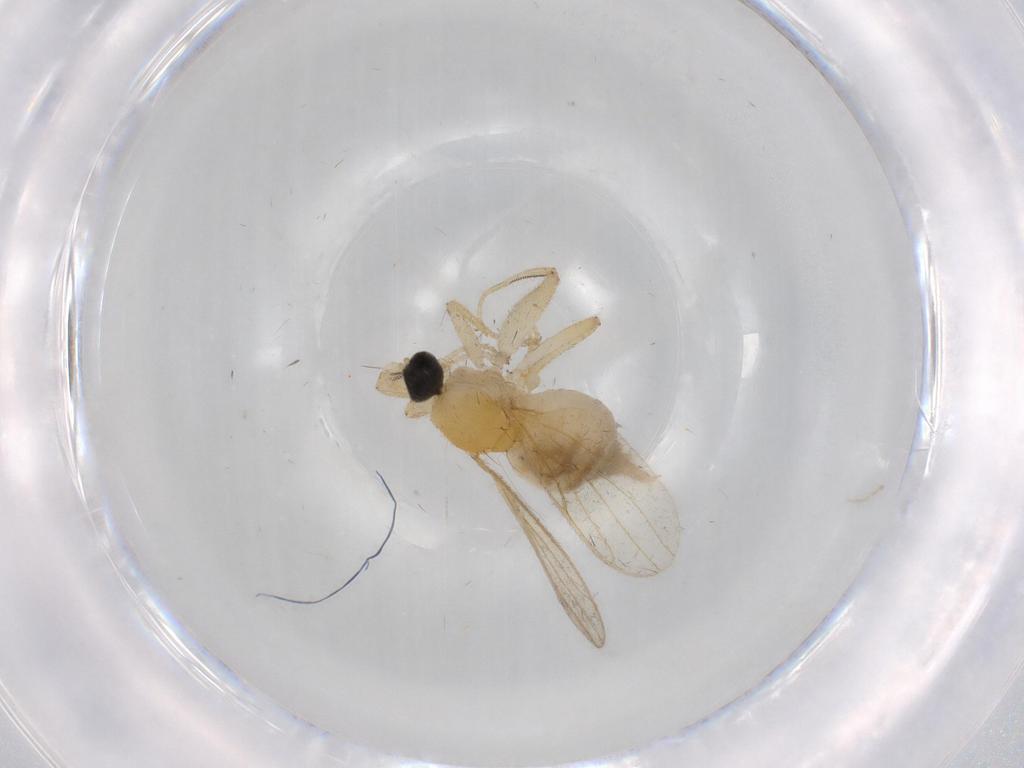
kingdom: Animalia
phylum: Arthropoda
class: Insecta
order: Diptera
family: Hybotidae
